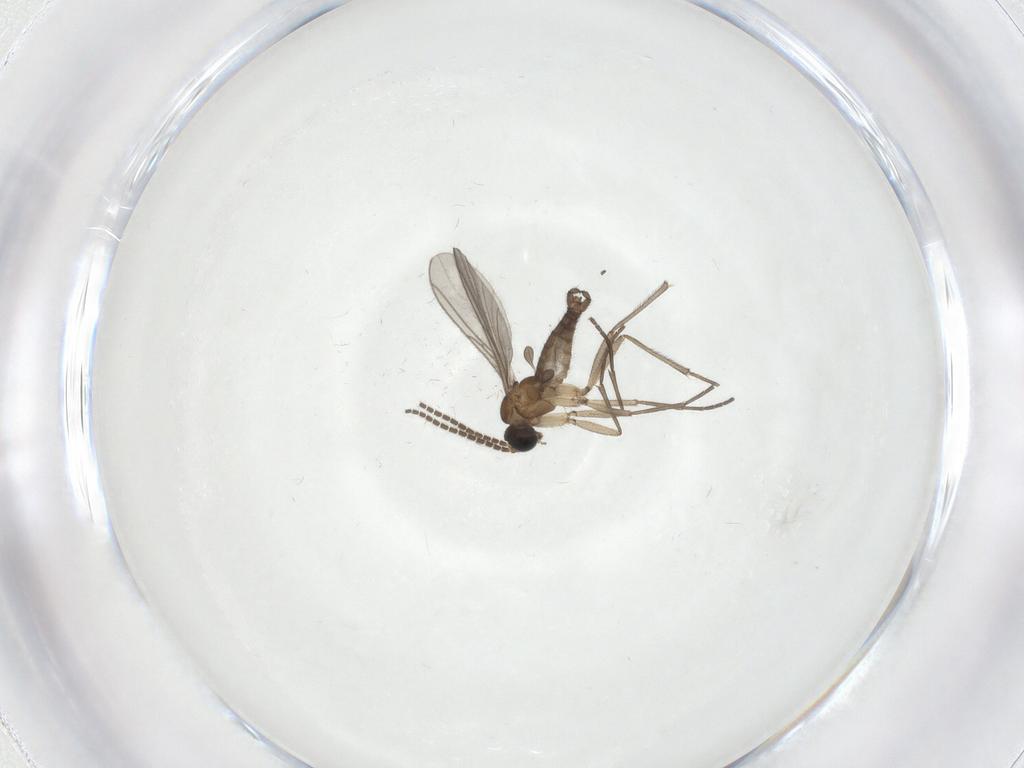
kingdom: Animalia
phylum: Arthropoda
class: Insecta
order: Diptera
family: Sciaridae
